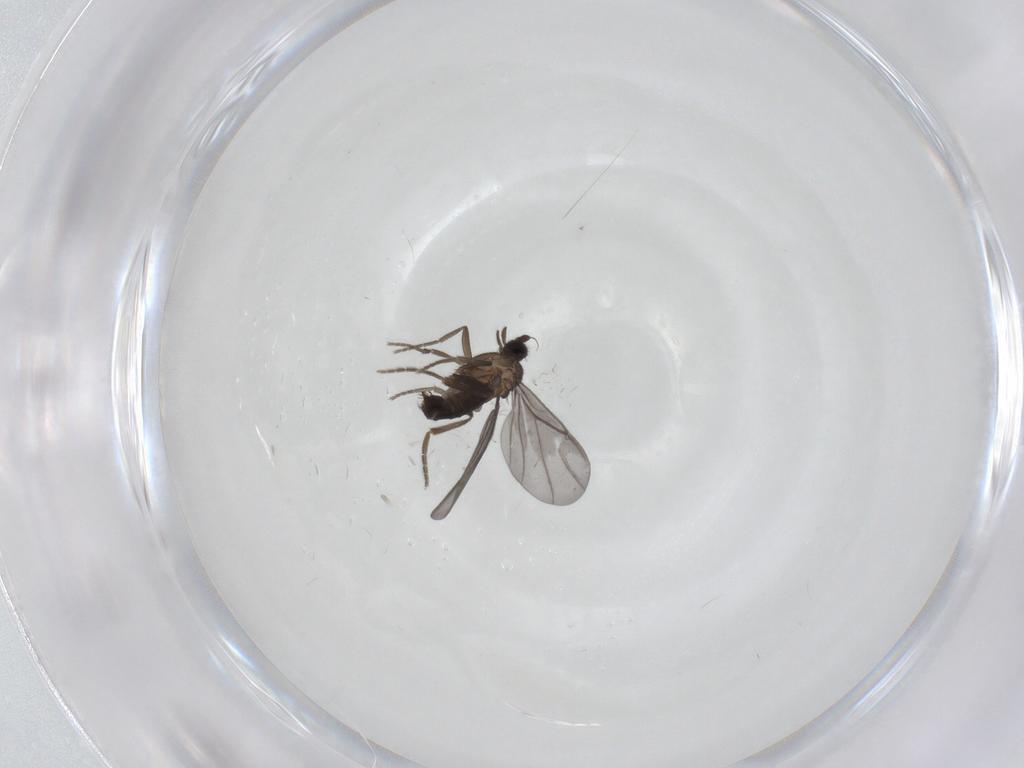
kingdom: Animalia
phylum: Arthropoda
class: Insecta
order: Diptera
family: Phoridae
